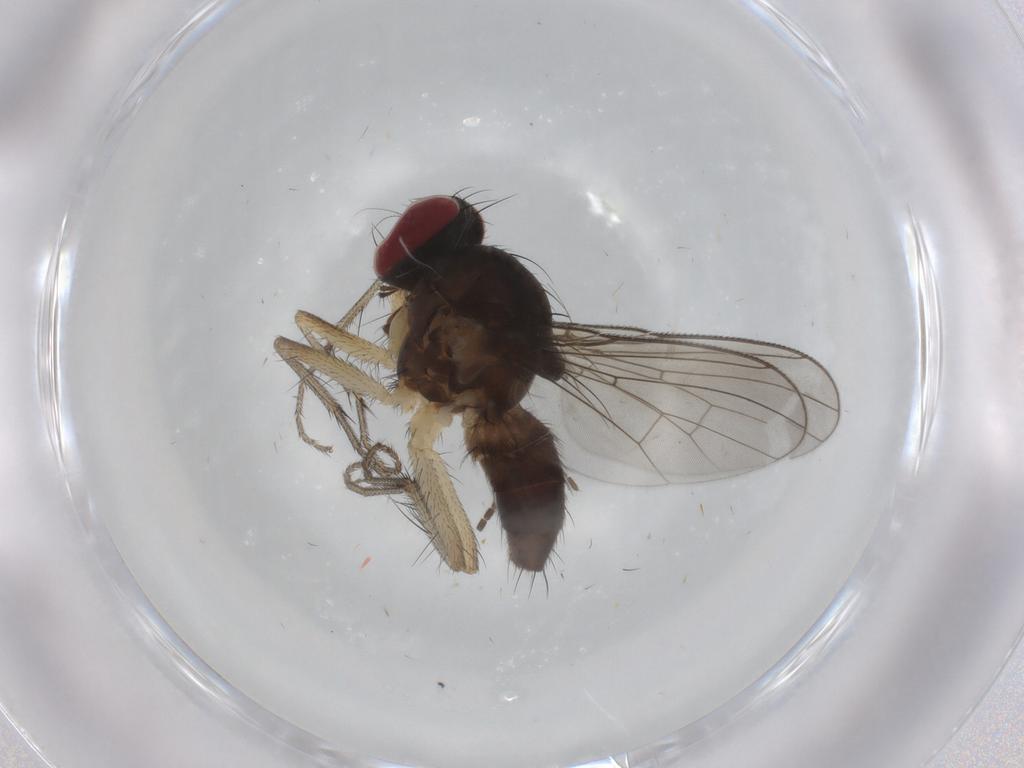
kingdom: Animalia
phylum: Arthropoda
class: Insecta
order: Diptera
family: Muscidae
